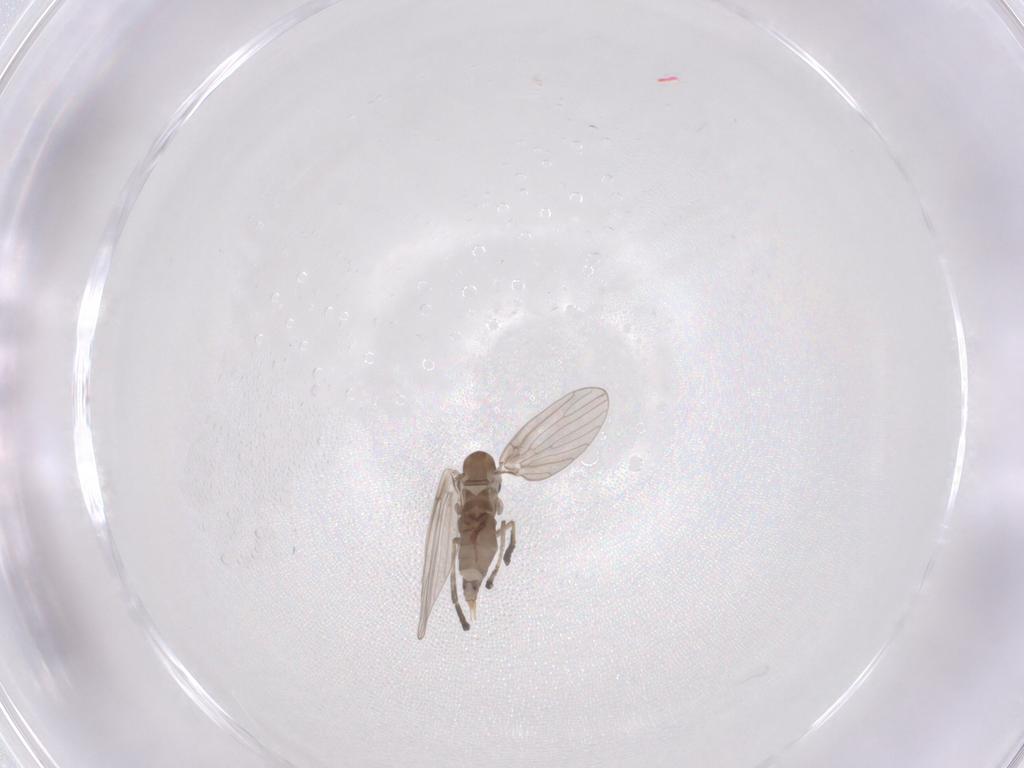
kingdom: Animalia
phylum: Arthropoda
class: Insecta
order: Diptera
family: Psychodidae
